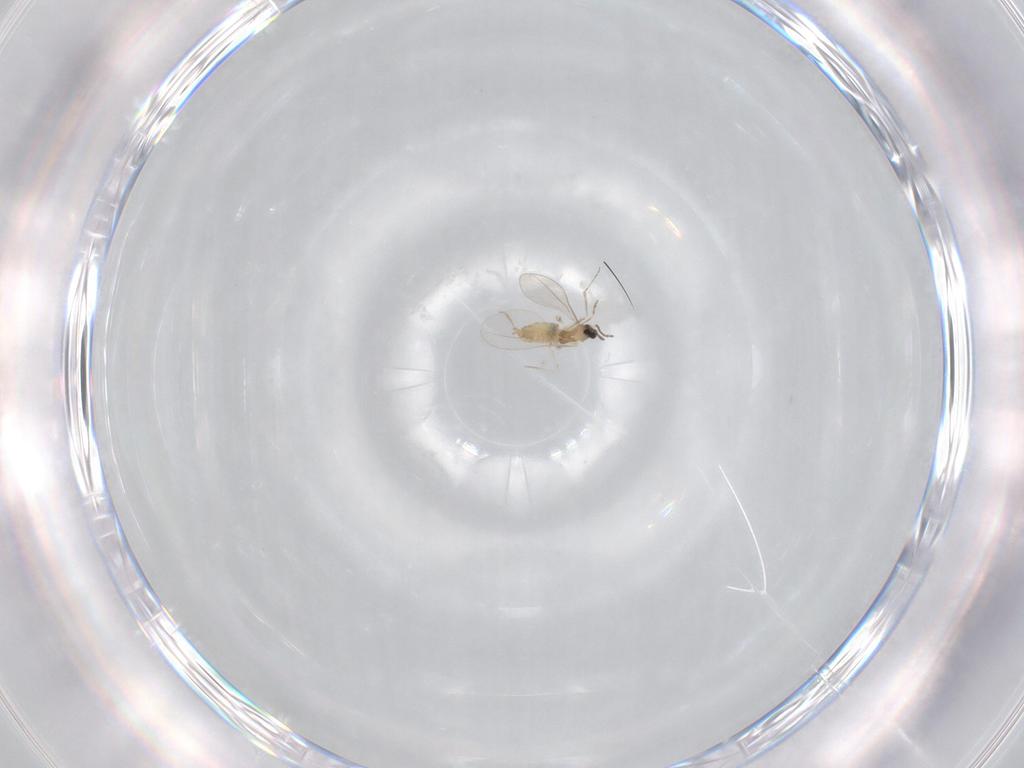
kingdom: Animalia
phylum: Arthropoda
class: Insecta
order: Diptera
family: Cecidomyiidae
